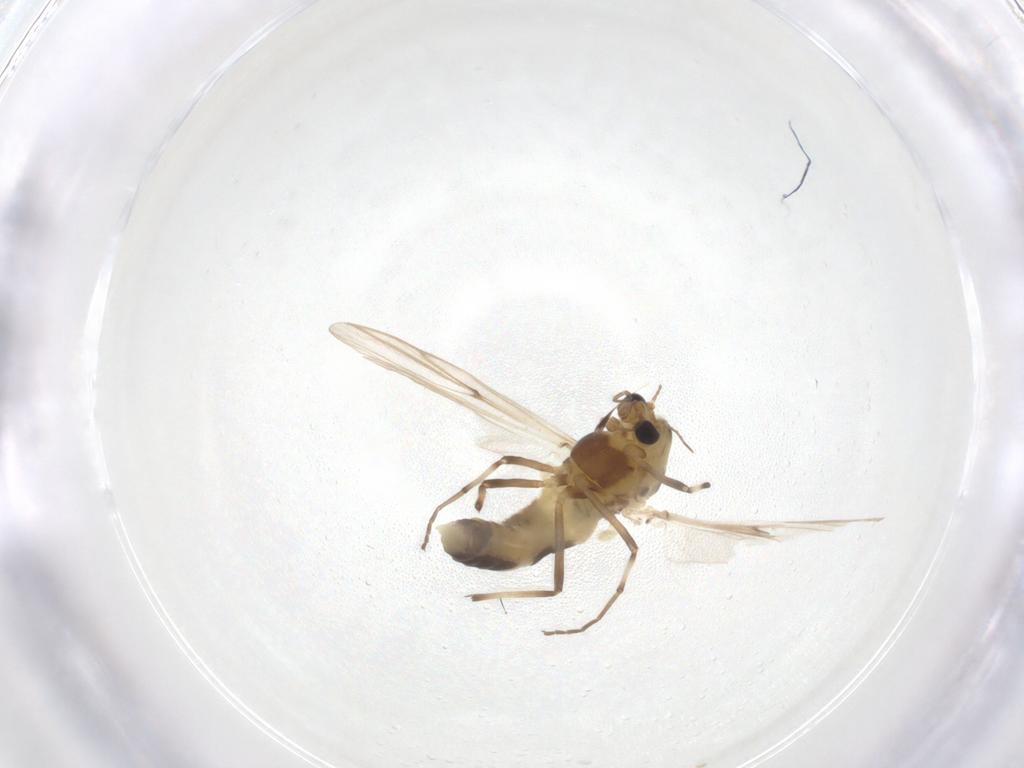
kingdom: Animalia
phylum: Arthropoda
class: Insecta
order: Diptera
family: Chironomidae
